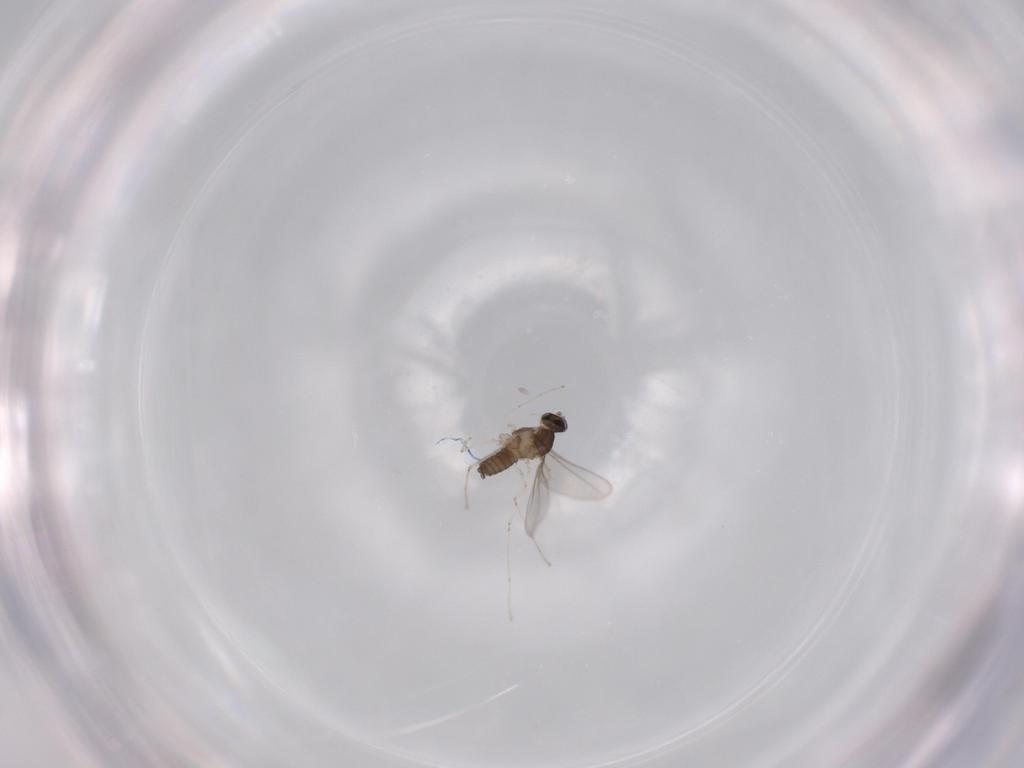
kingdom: Animalia
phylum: Arthropoda
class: Insecta
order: Diptera
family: Cecidomyiidae
